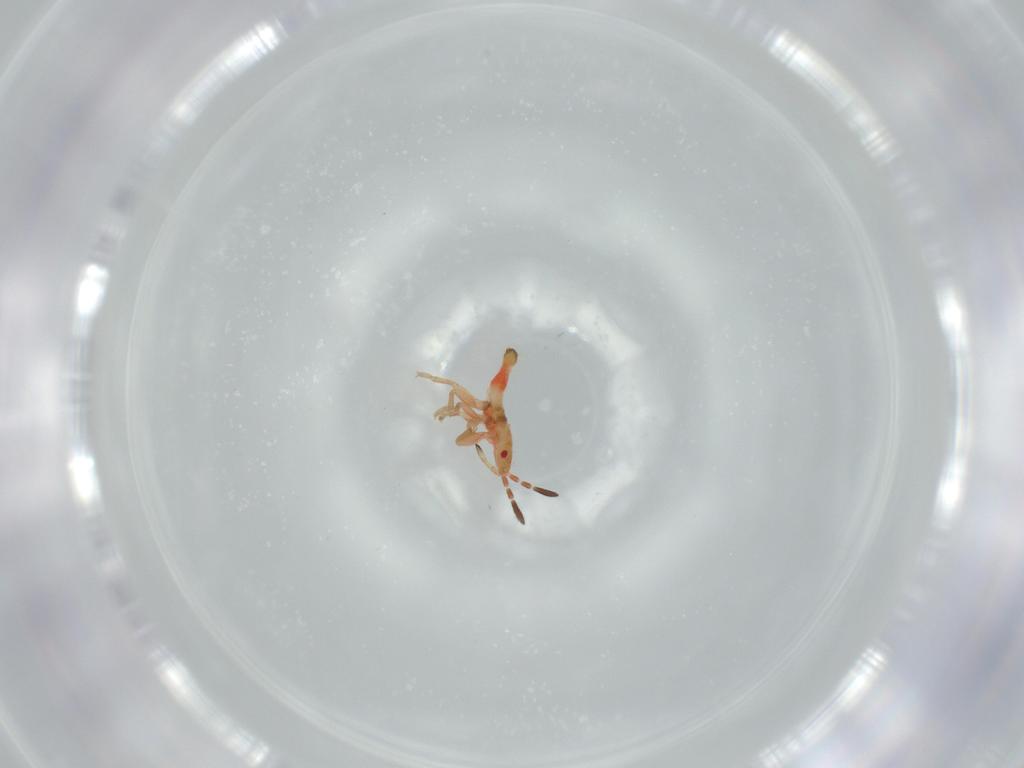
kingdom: Animalia
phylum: Arthropoda
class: Insecta
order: Hemiptera
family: Blissidae
